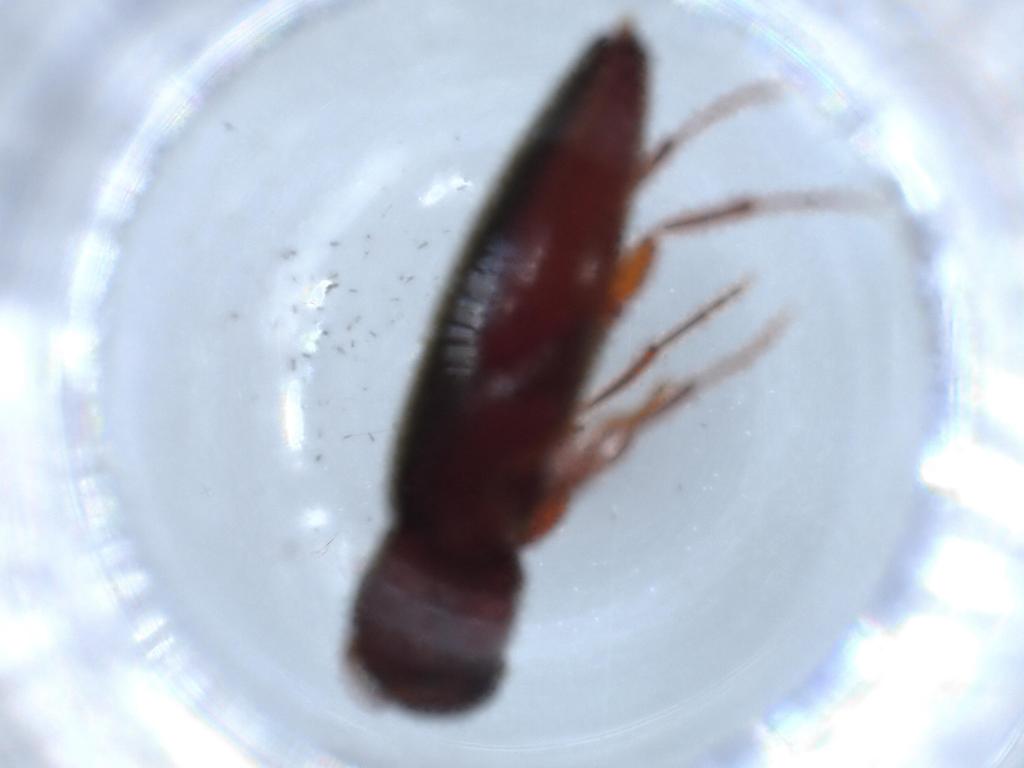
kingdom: Animalia
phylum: Arthropoda
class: Insecta
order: Coleoptera
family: Eucnemidae
